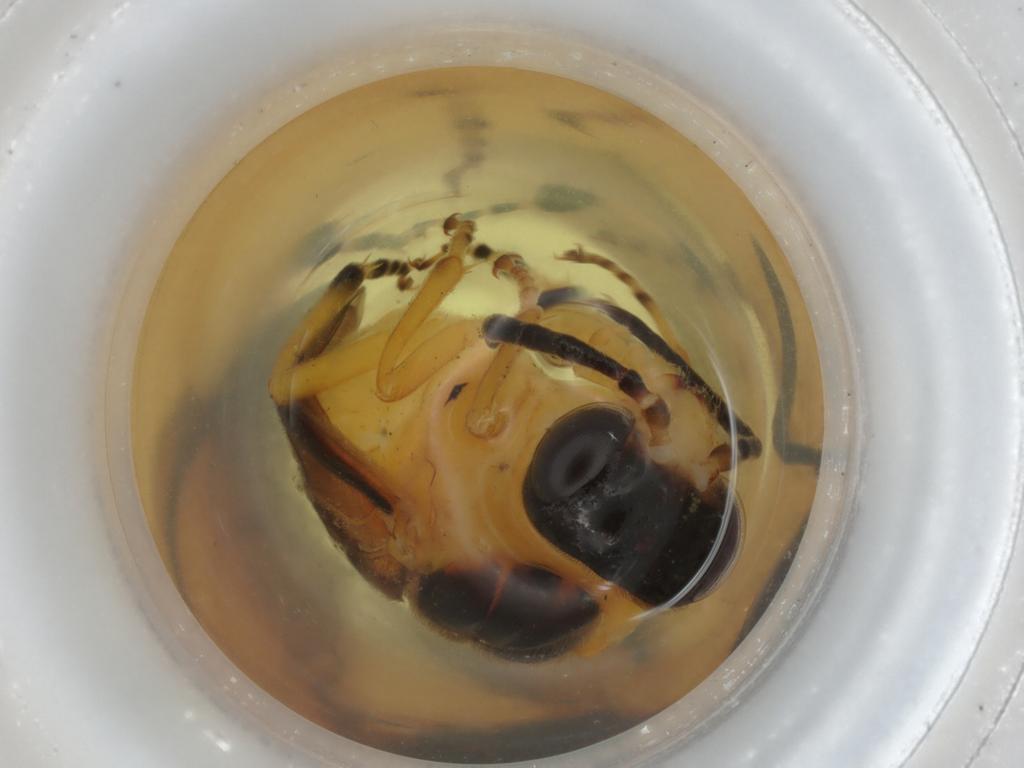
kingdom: Animalia
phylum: Arthropoda
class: Insecta
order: Hymenoptera
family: Tenthredinidae
